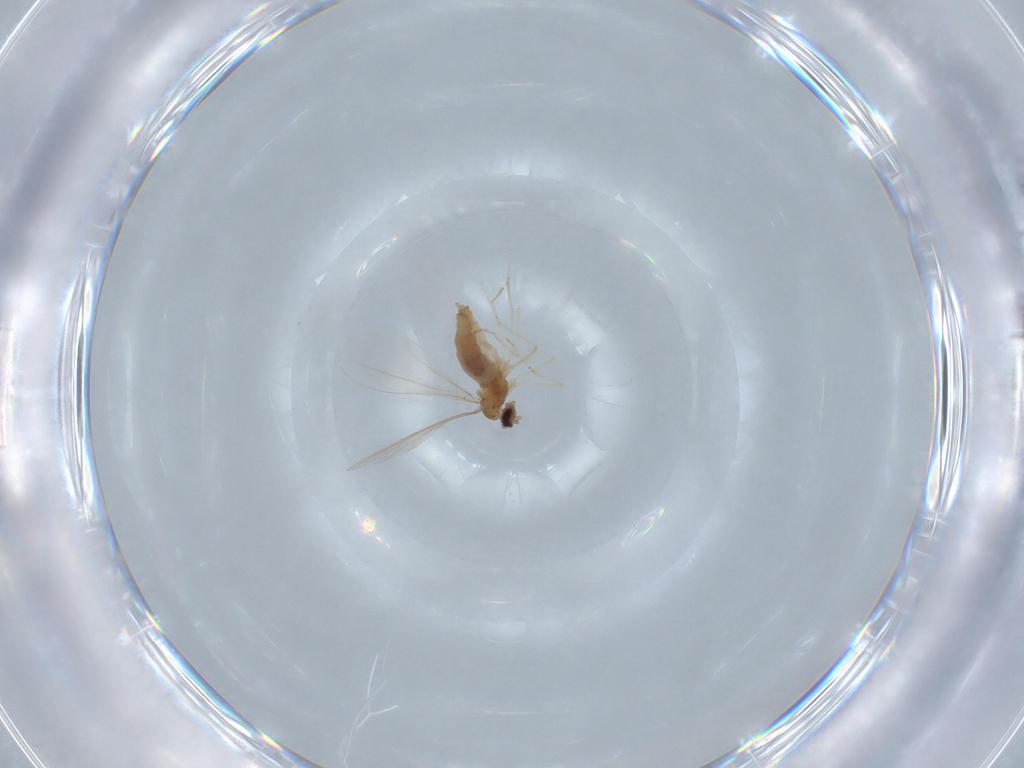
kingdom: Animalia
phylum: Arthropoda
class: Insecta
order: Diptera
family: Cecidomyiidae
